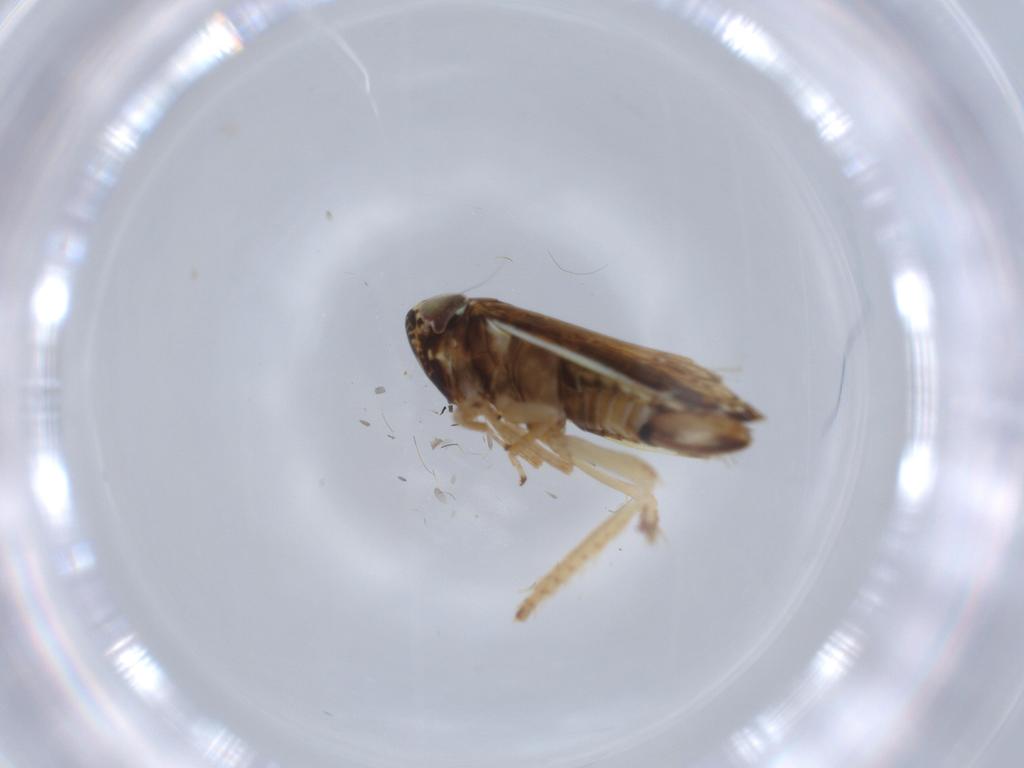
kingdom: Animalia
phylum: Arthropoda
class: Insecta
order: Hemiptera
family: Cicadellidae
